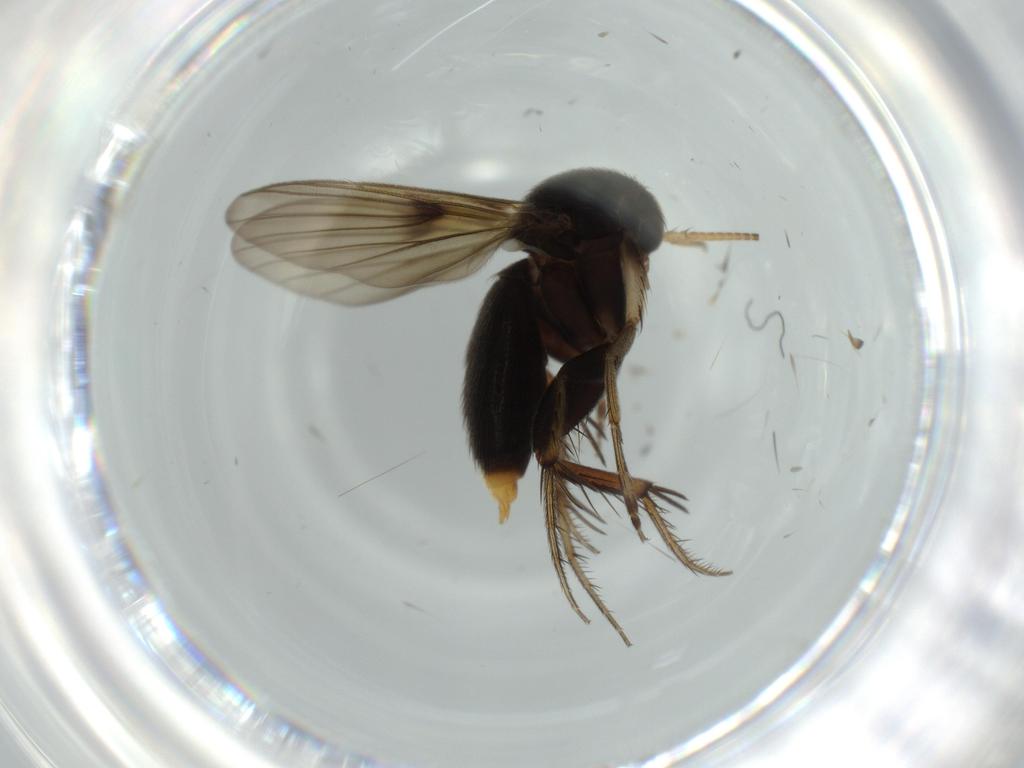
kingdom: Animalia
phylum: Arthropoda
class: Insecta
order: Diptera
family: Mycetophilidae
